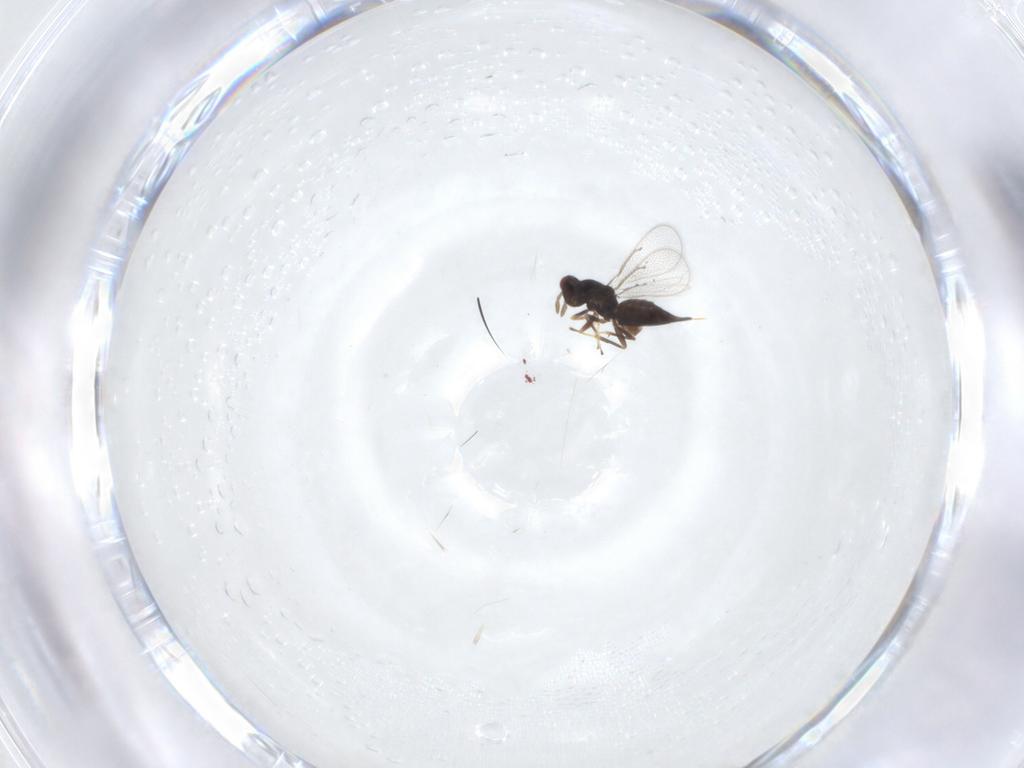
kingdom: Animalia
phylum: Arthropoda
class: Insecta
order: Hymenoptera
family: Eulophidae
